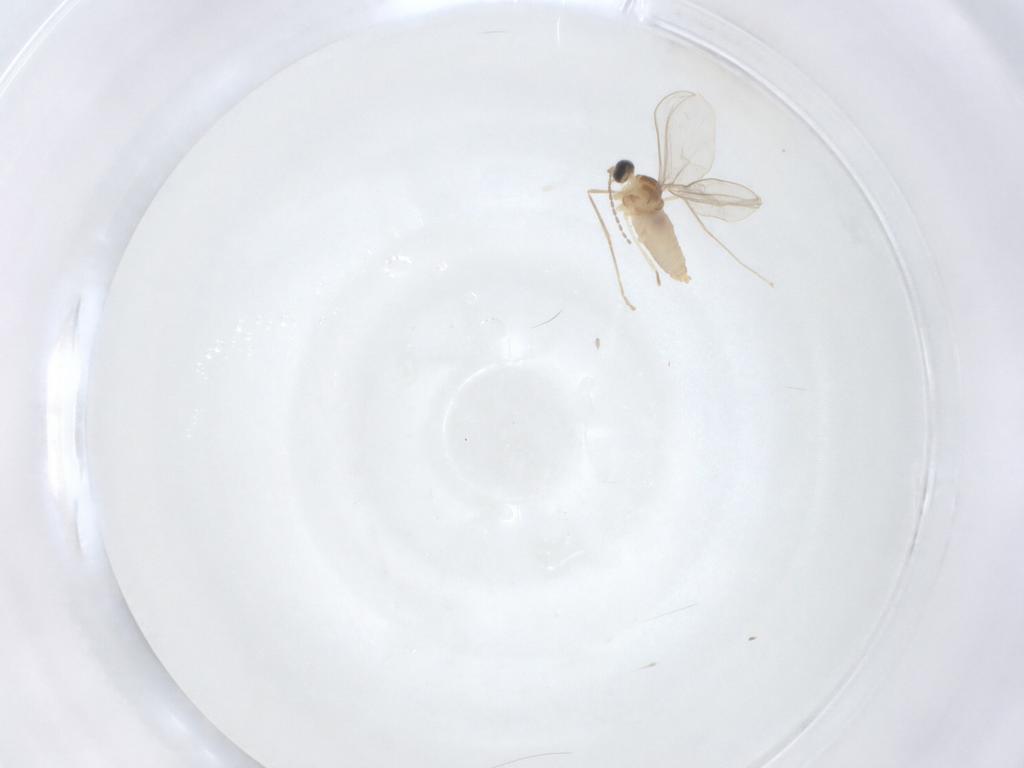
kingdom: Animalia
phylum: Arthropoda
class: Insecta
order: Diptera
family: Cecidomyiidae
